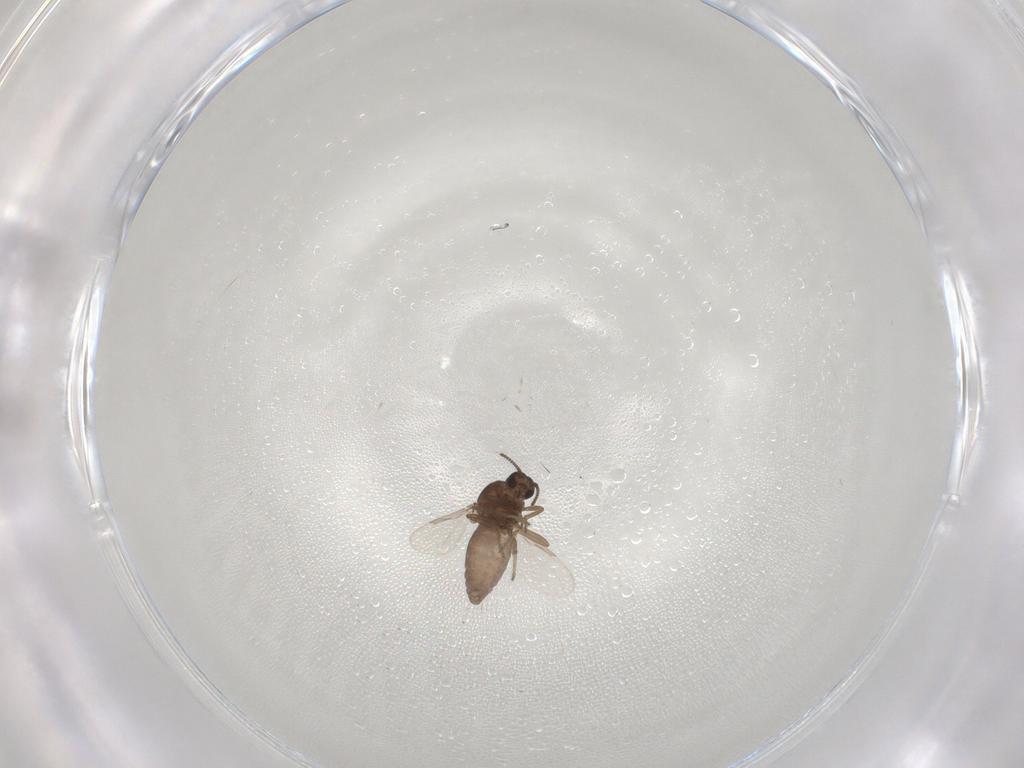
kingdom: Animalia
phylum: Arthropoda
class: Insecta
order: Diptera
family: Ceratopogonidae
